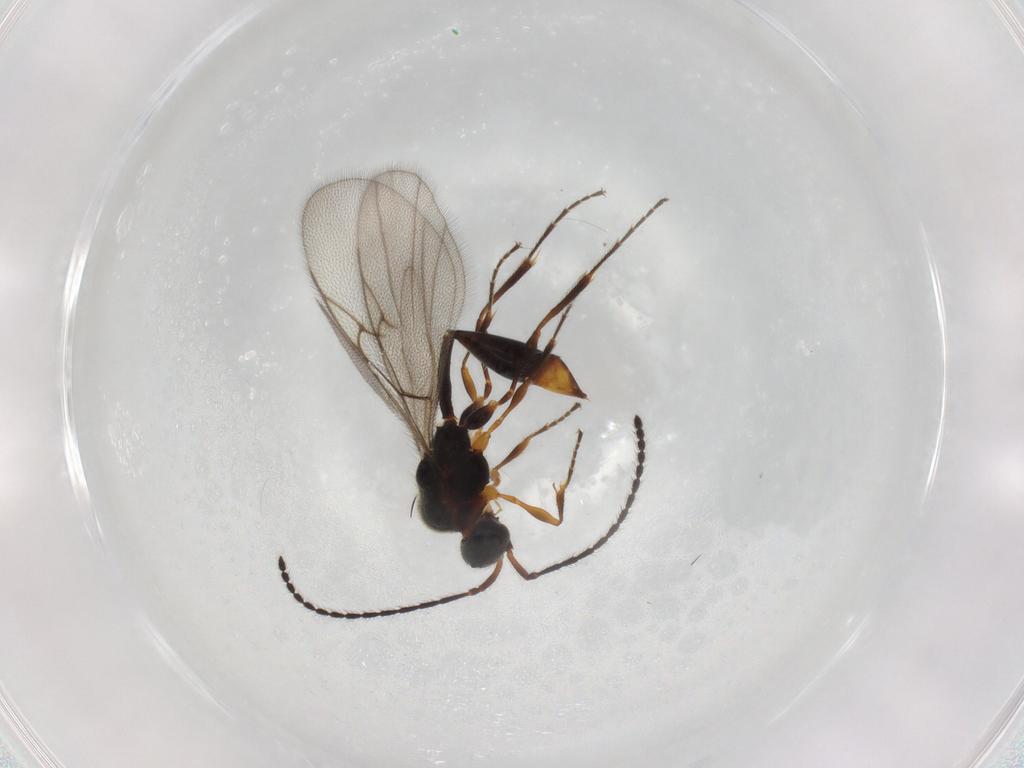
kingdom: Animalia
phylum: Arthropoda
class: Insecta
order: Hymenoptera
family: Diapriidae
